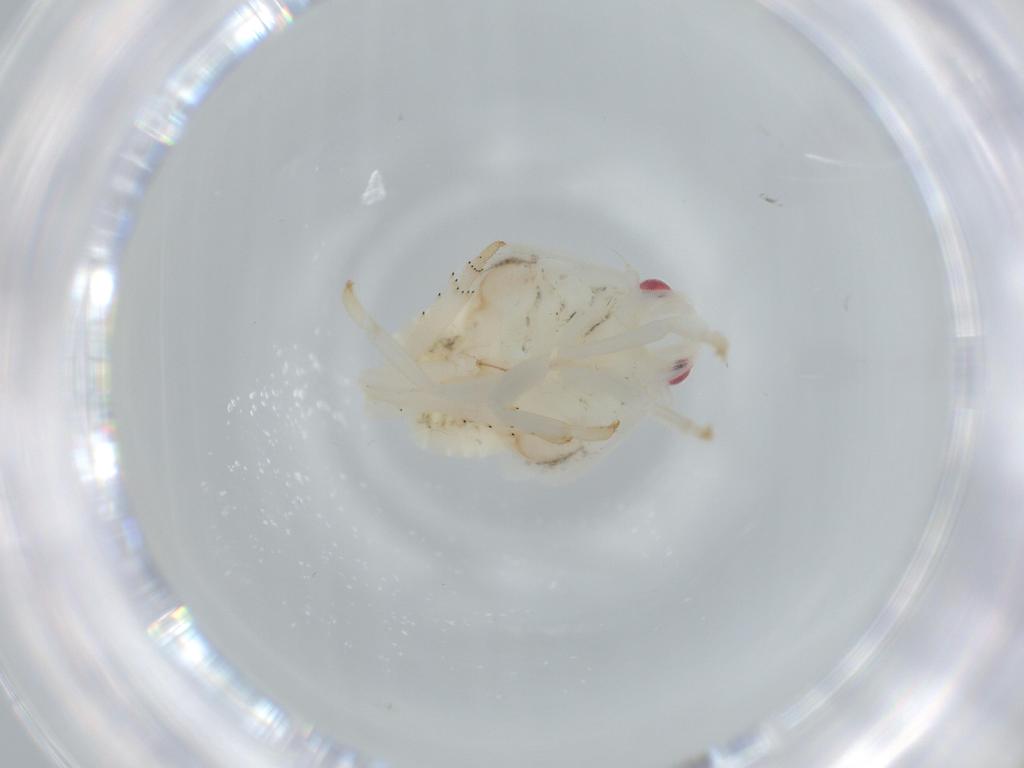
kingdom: Animalia
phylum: Arthropoda
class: Insecta
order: Hemiptera
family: Flatidae
